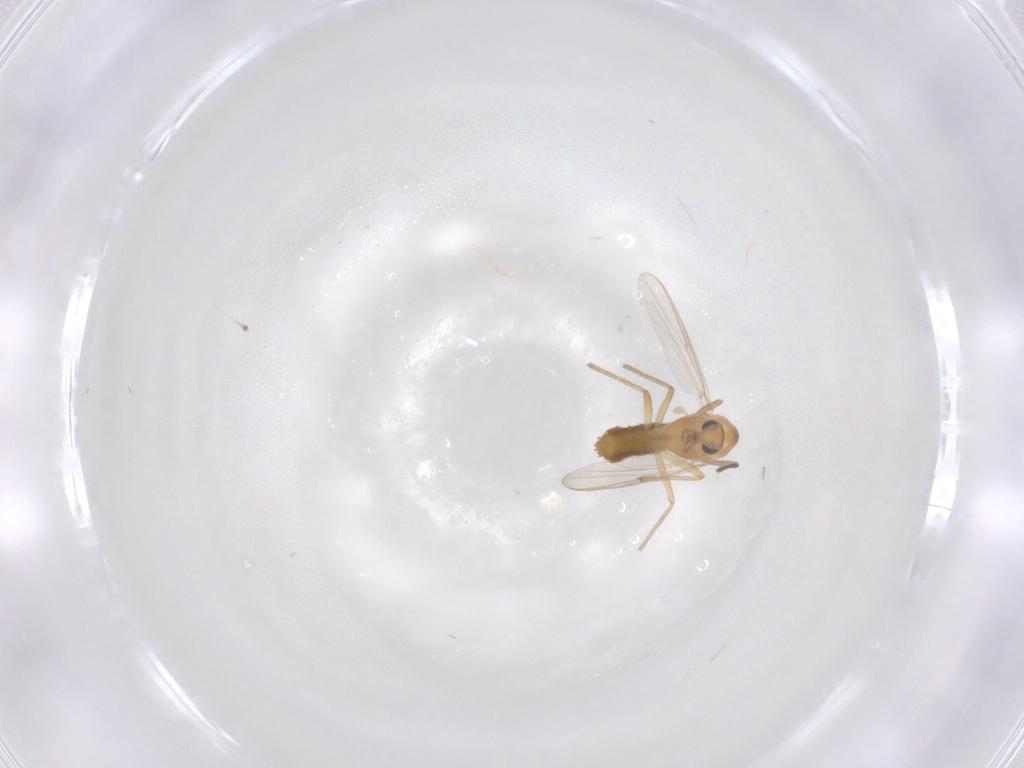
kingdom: Animalia
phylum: Arthropoda
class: Insecta
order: Diptera
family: Chironomidae
